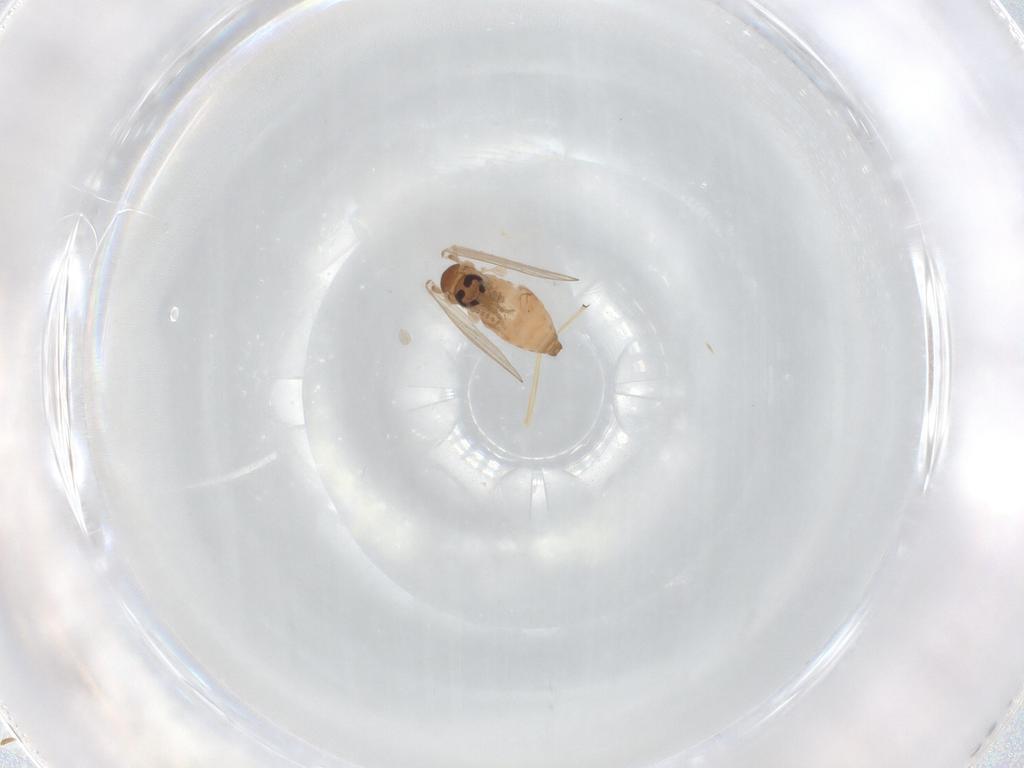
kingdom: Animalia
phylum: Arthropoda
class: Insecta
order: Diptera
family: Psychodidae
